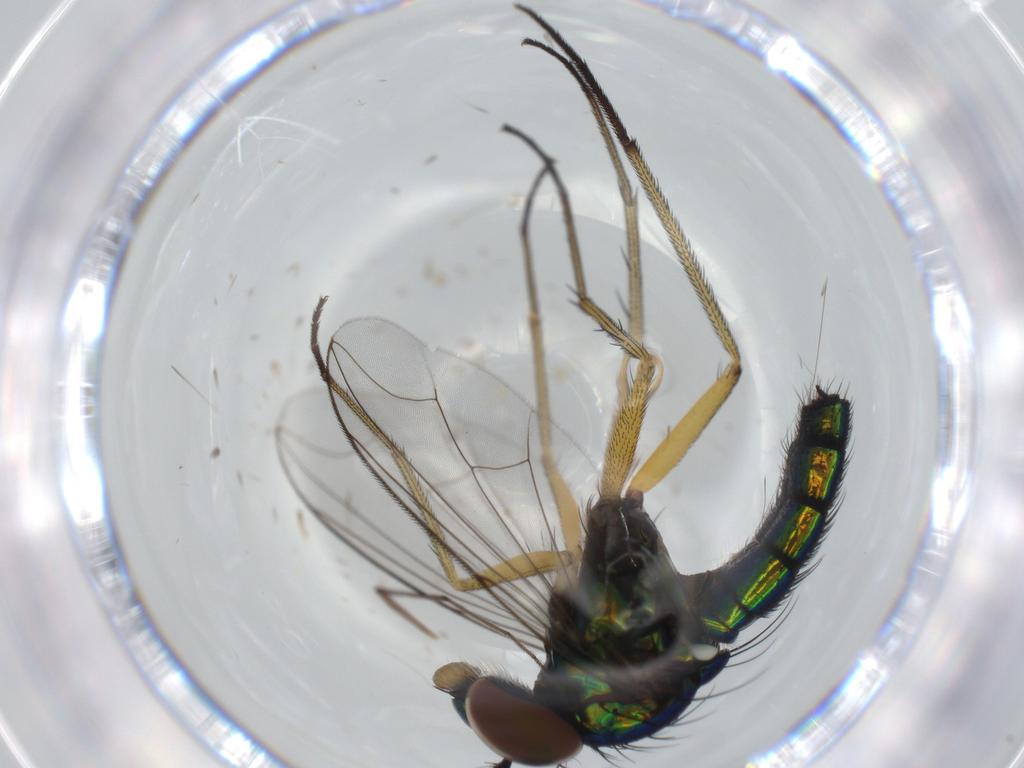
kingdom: Animalia
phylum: Arthropoda
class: Insecta
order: Diptera
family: Dolichopodidae
